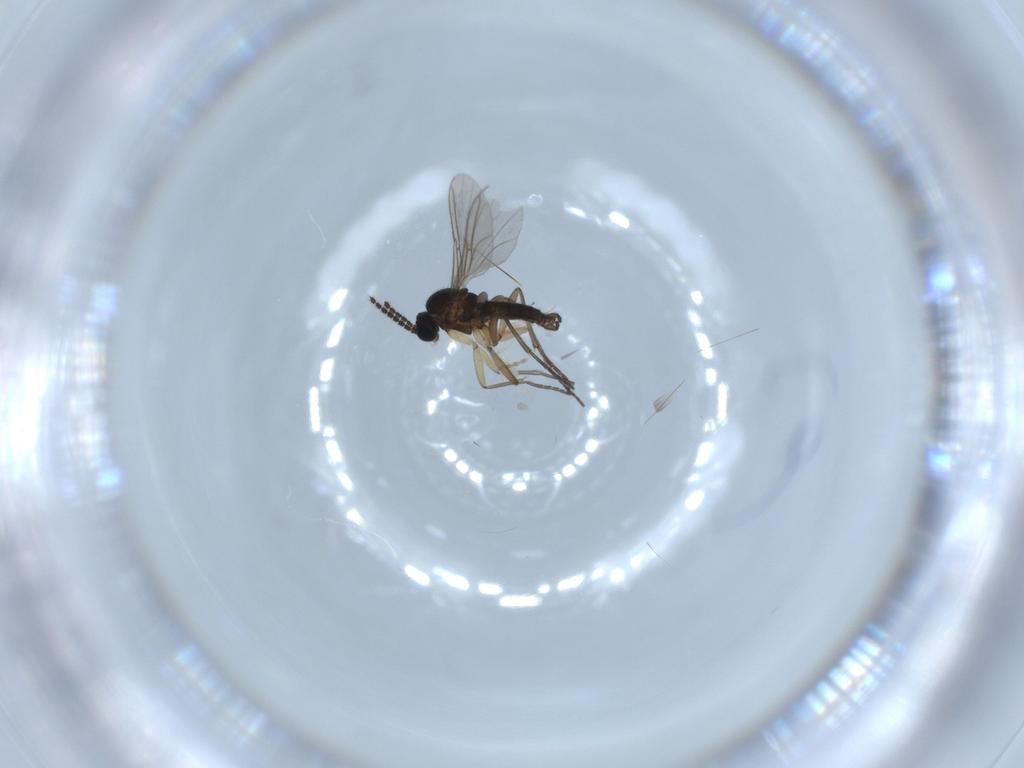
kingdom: Animalia
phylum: Arthropoda
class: Insecta
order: Diptera
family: Sciaridae
